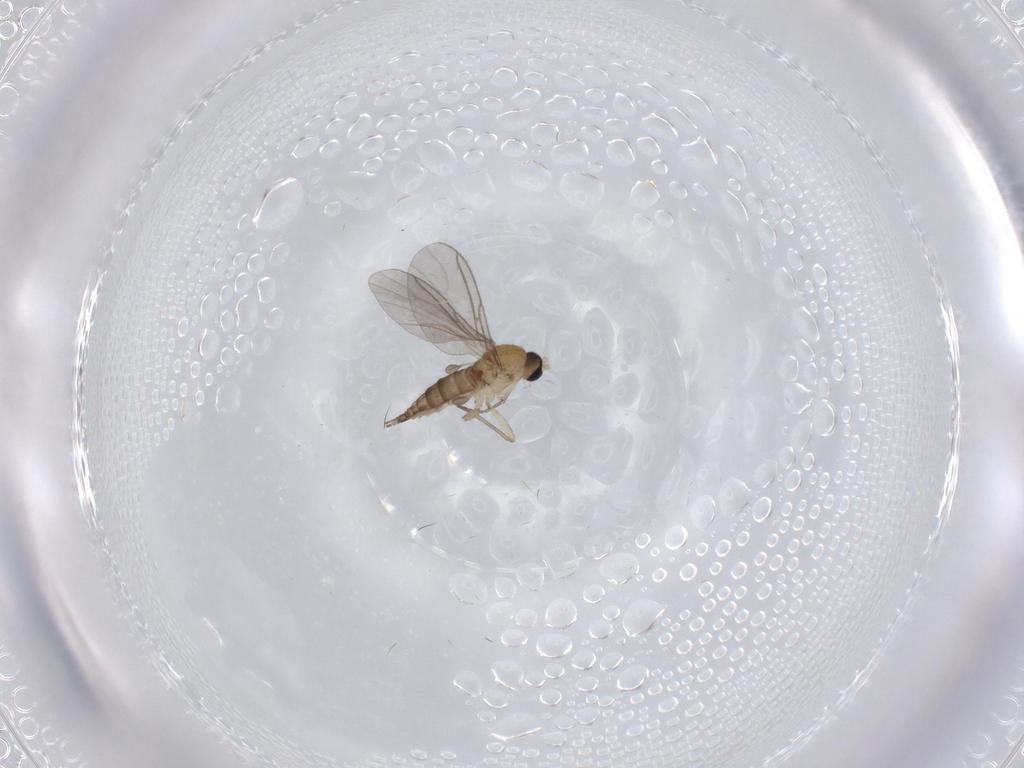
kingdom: Animalia
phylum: Arthropoda
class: Insecta
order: Diptera
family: Sciaridae
